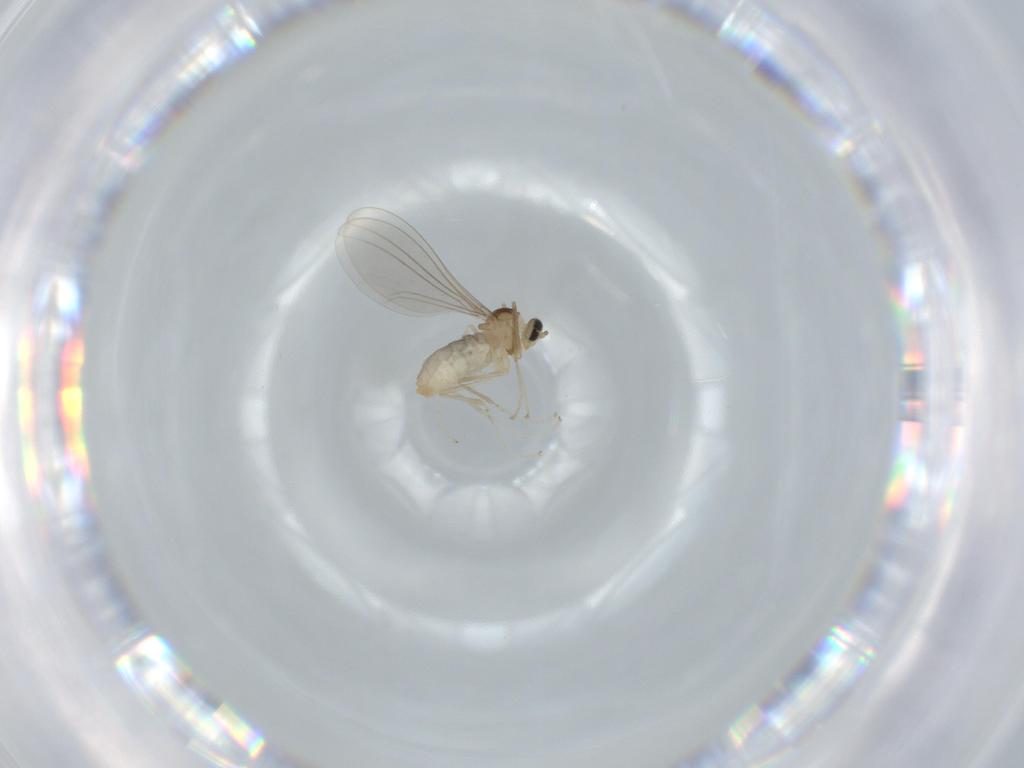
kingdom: Animalia
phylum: Arthropoda
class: Insecta
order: Diptera
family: Cecidomyiidae
